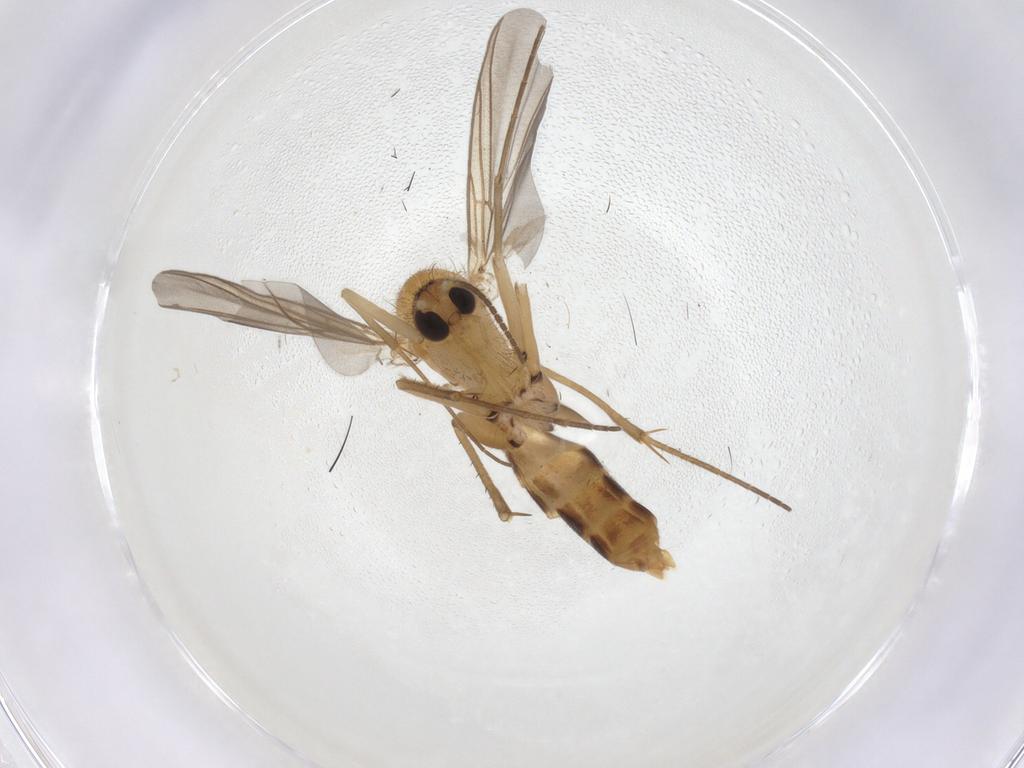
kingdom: Animalia
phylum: Arthropoda
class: Insecta
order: Diptera
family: Mycetophilidae
